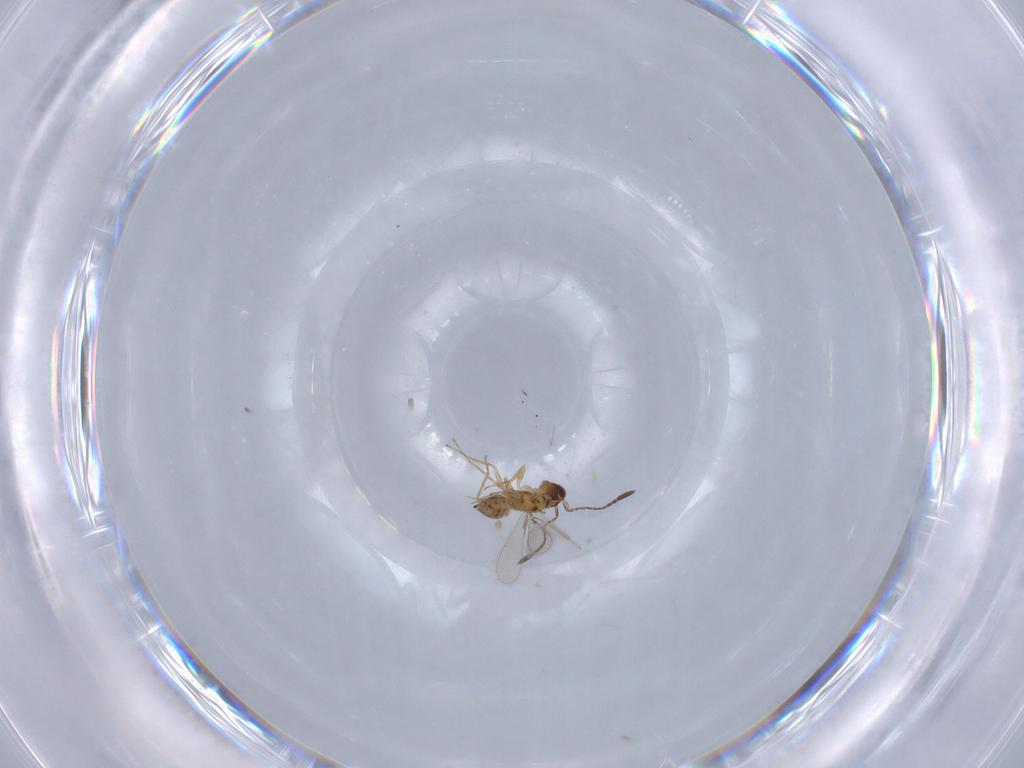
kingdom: Animalia
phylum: Arthropoda
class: Insecta
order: Hymenoptera
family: Mymaridae
